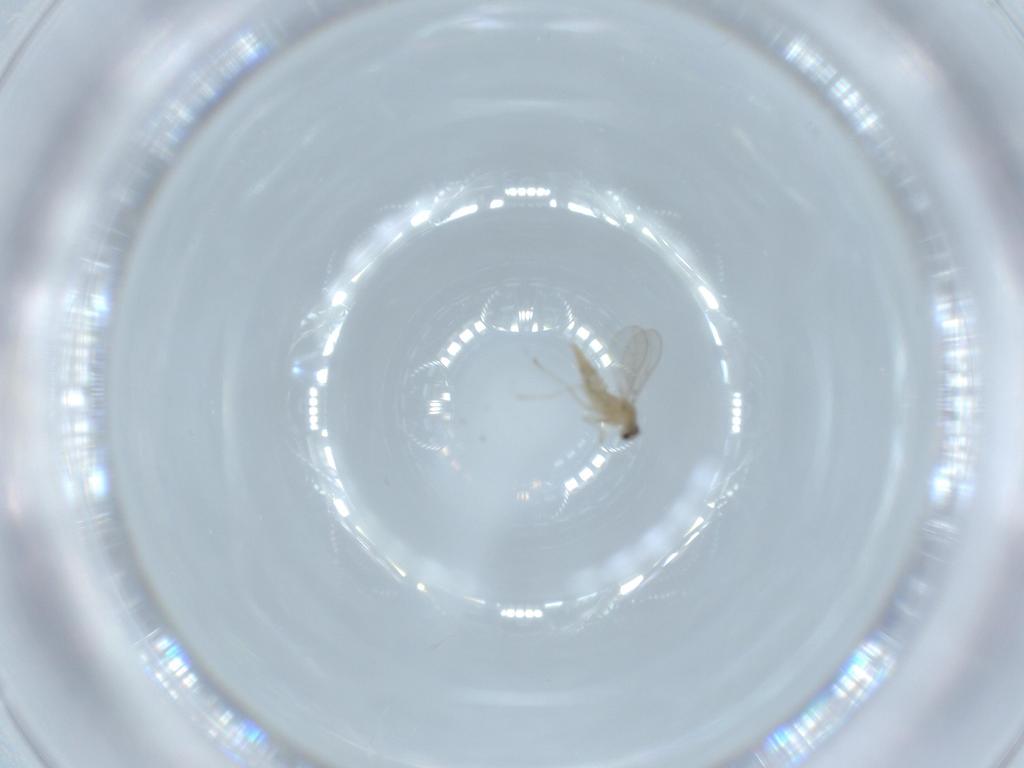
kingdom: Animalia
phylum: Arthropoda
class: Insecta
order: Diptera
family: Cecidomyiidae
